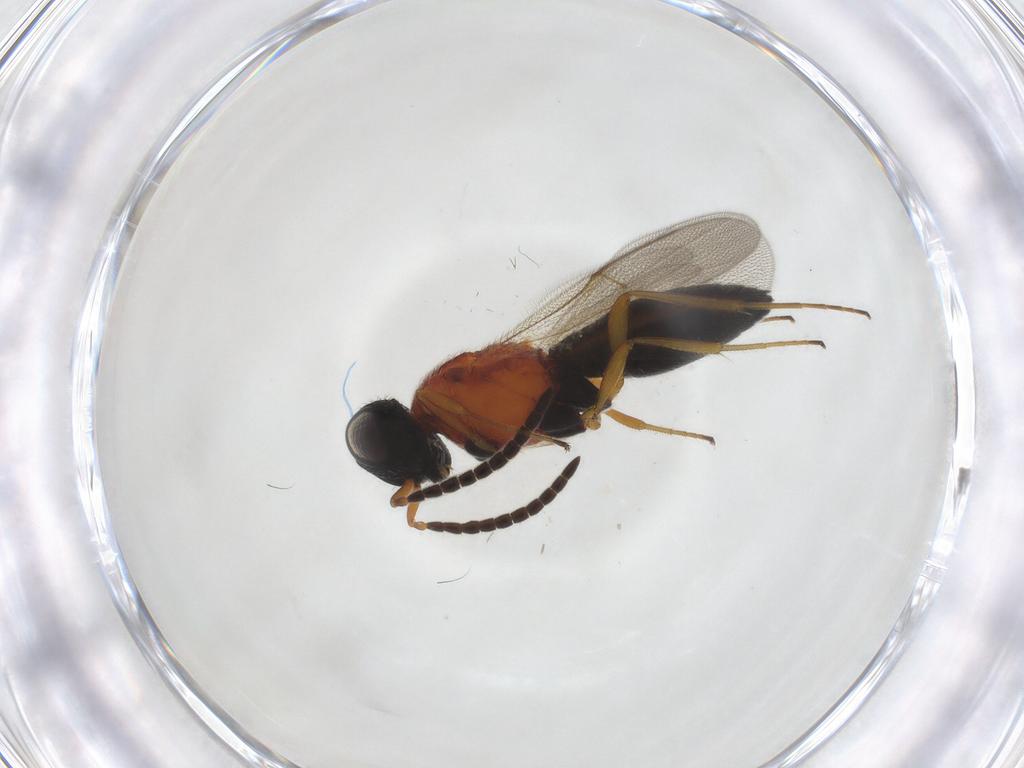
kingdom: Animalia
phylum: Arthropoda
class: Insecta
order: Hymenoptera
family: Scelionidae
